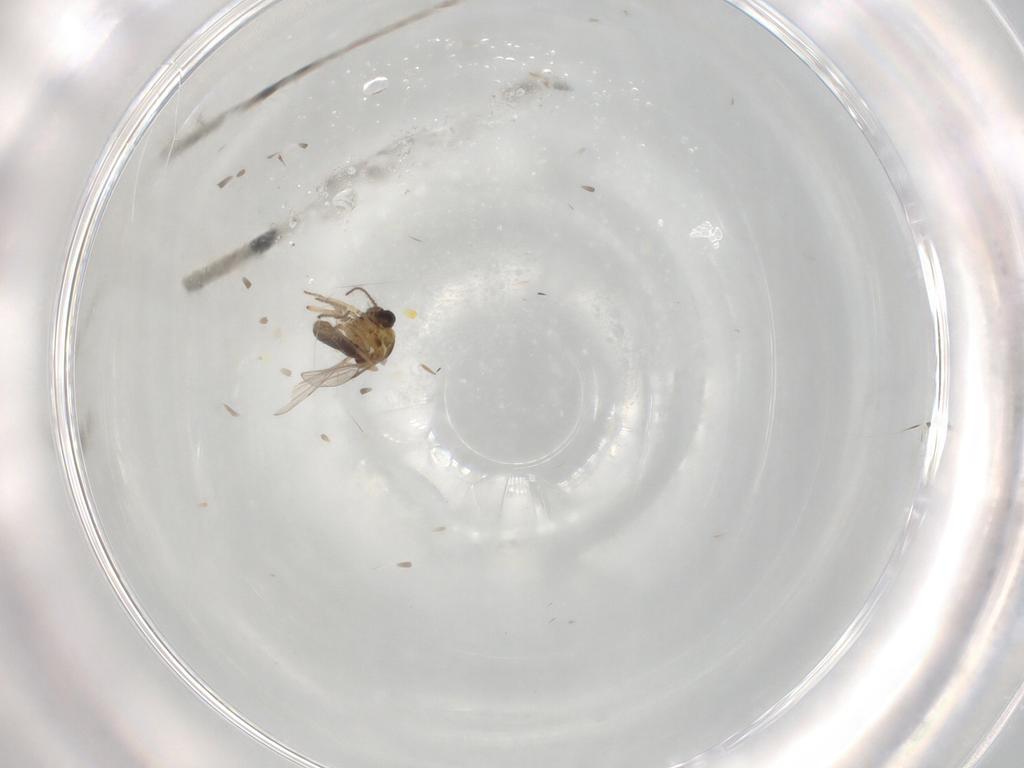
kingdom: Animalia
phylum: Arthropoda
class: Insecta
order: Diptera
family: Ceratopogonidae
